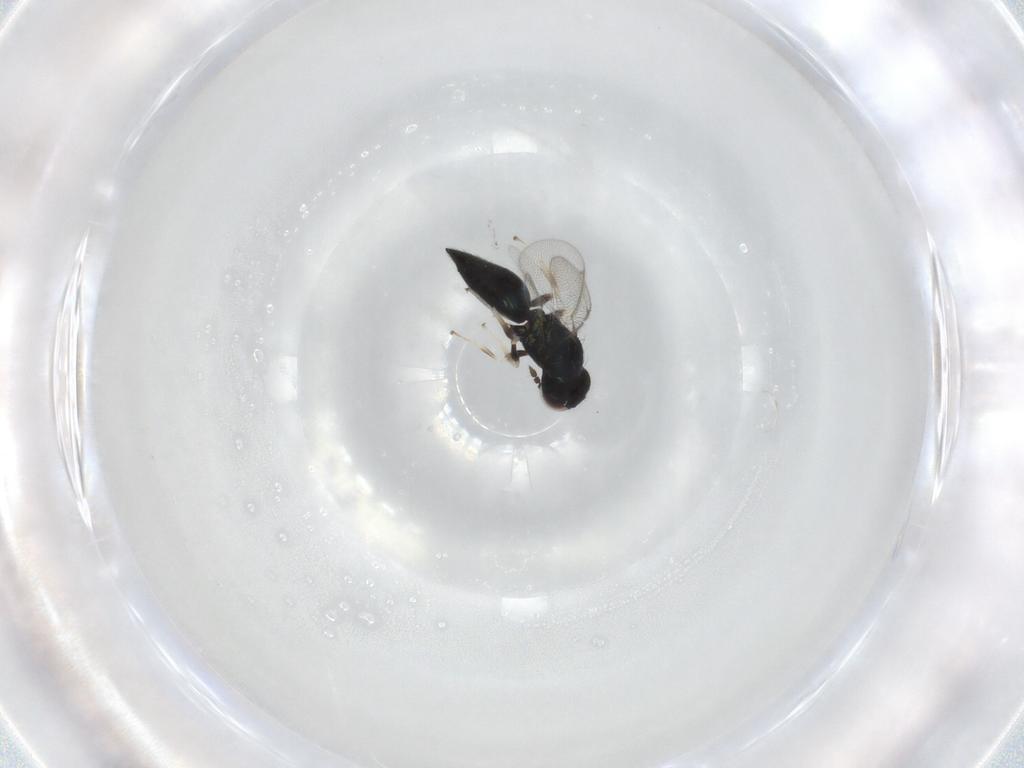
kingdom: Animalia
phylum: Arthropoda
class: Insecta
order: Hymenoptera
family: Eulophidae
